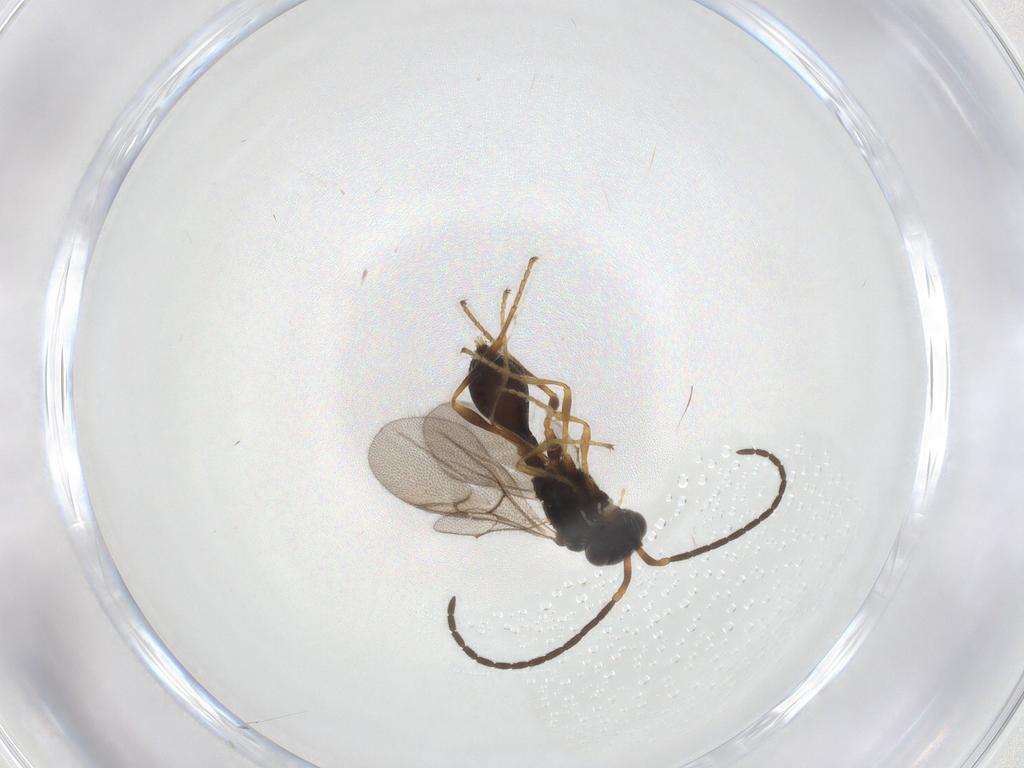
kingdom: Animalia
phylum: Arthropoda
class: Insecta
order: Hymenoptera
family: Diapriidae
